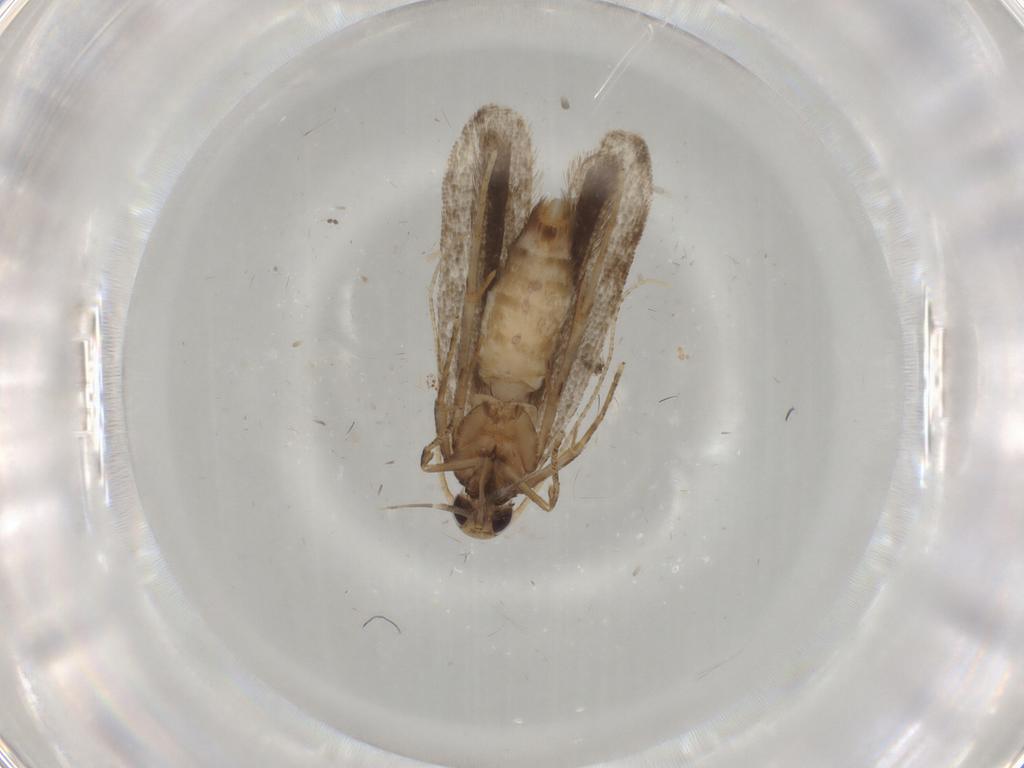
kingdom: Animalia
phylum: Arthropoda
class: Insecta
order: Lepidoptera
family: Gelechiidae
